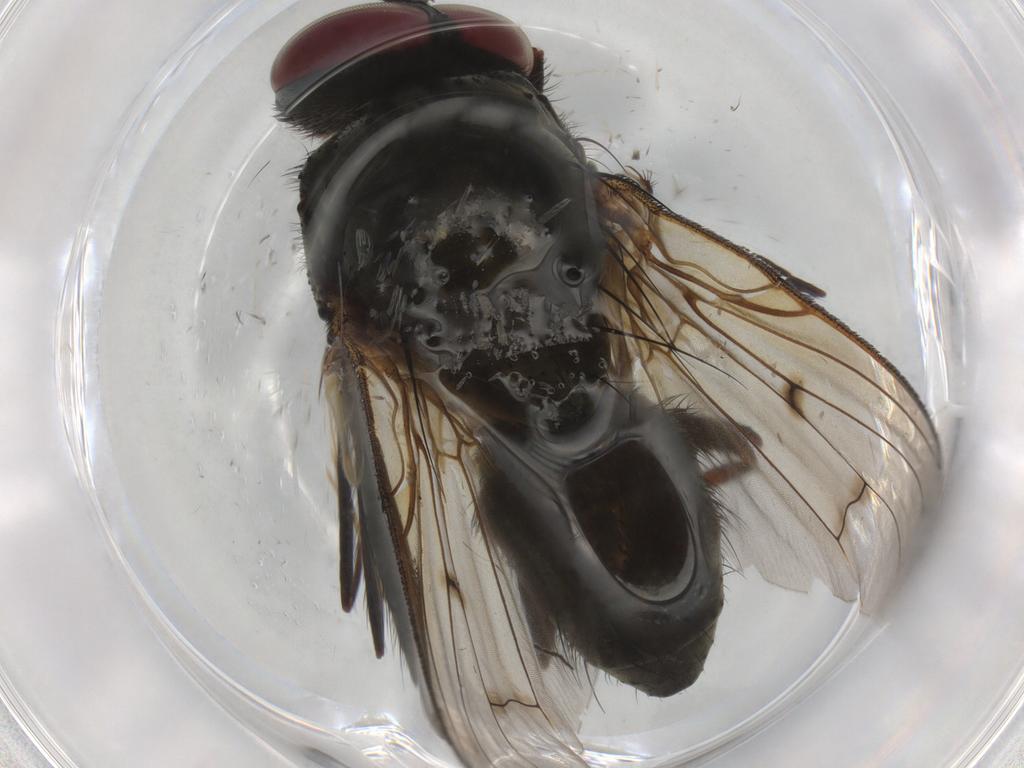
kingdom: Animalia
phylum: Arthropoda
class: Insecta
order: Diptera
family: Muscidae
